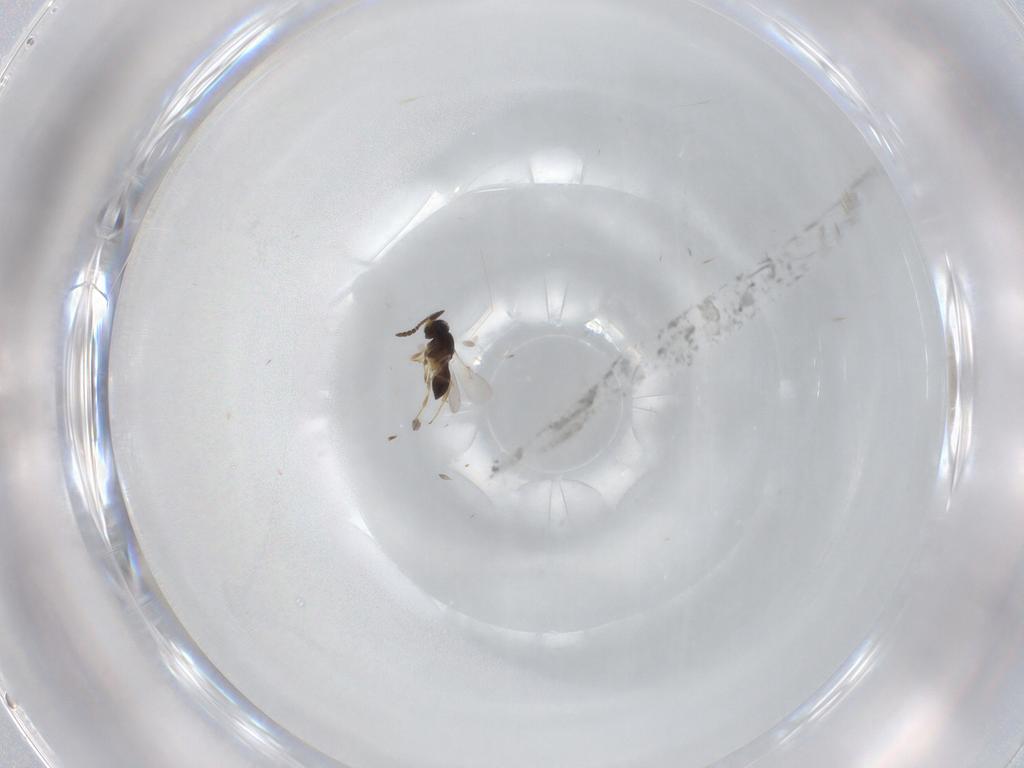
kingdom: Animalia
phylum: Arthropoda
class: Insecta
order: Hymenoptera
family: Scelionidae
